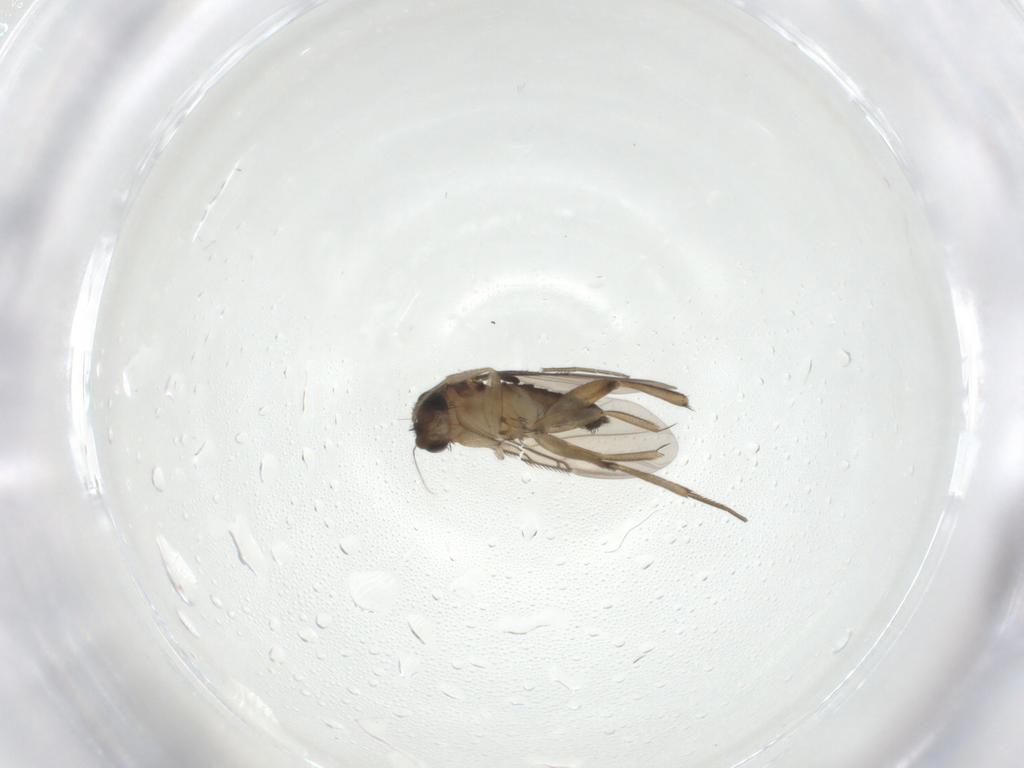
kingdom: Animalia
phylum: Arthropoda
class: Insecta
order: Diptera
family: Phoridae
